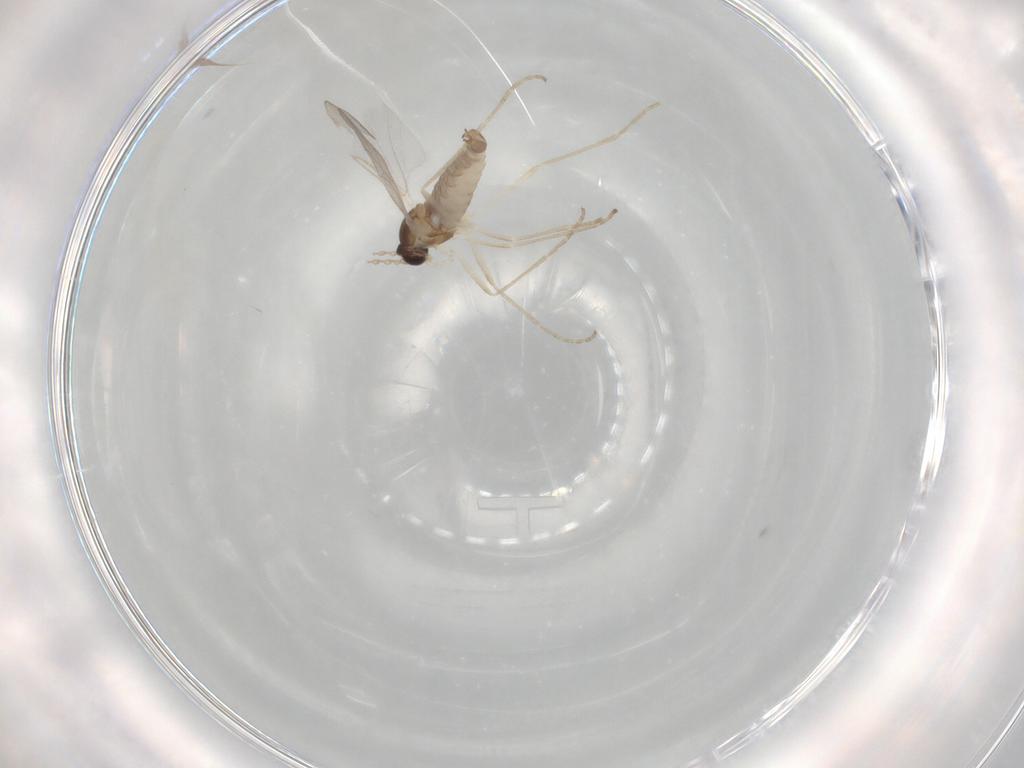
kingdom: Animalia
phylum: Arthropoda
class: Insecta
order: Diptera
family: Cecidomyiidae
